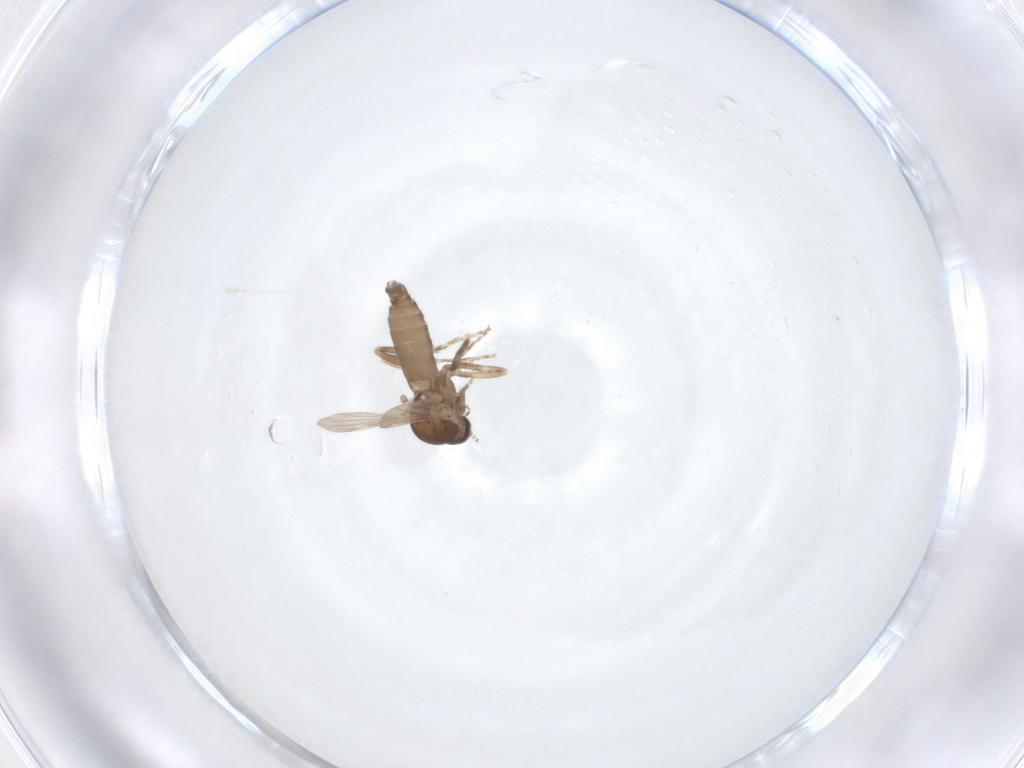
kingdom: Animalia
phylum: Arthropoda
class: Insecta
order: Diptera
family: Ceratopogonidae
